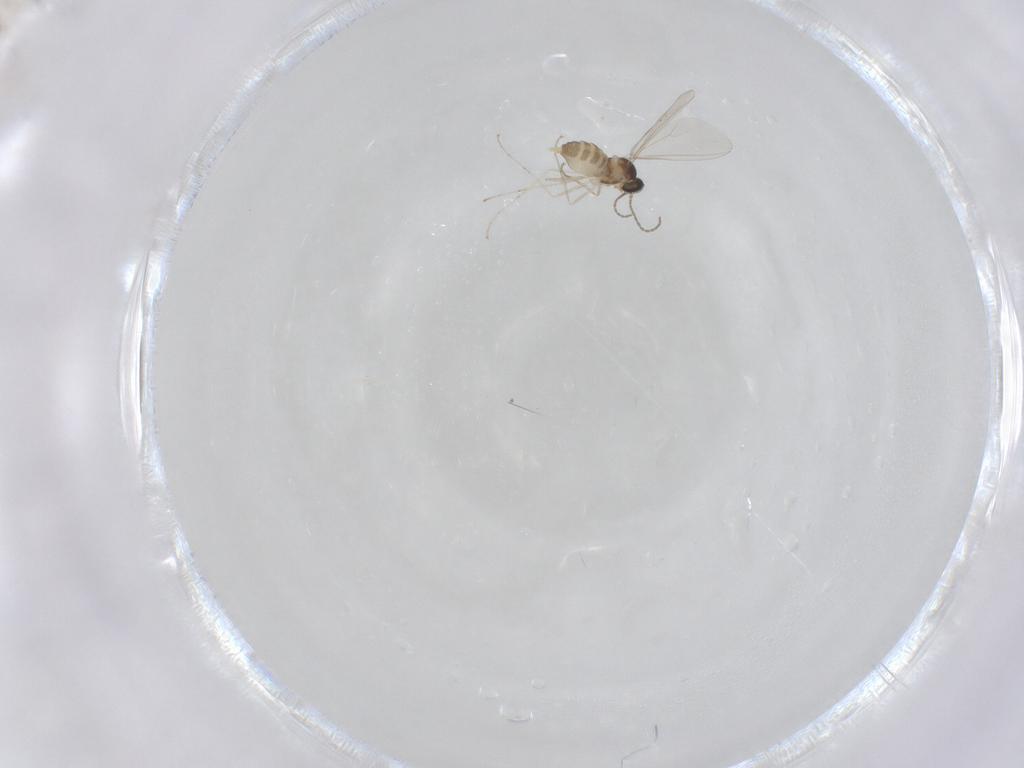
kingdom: Animalia
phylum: Arthropoda
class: Insecta
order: Diptera
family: Cecidomyiidae
